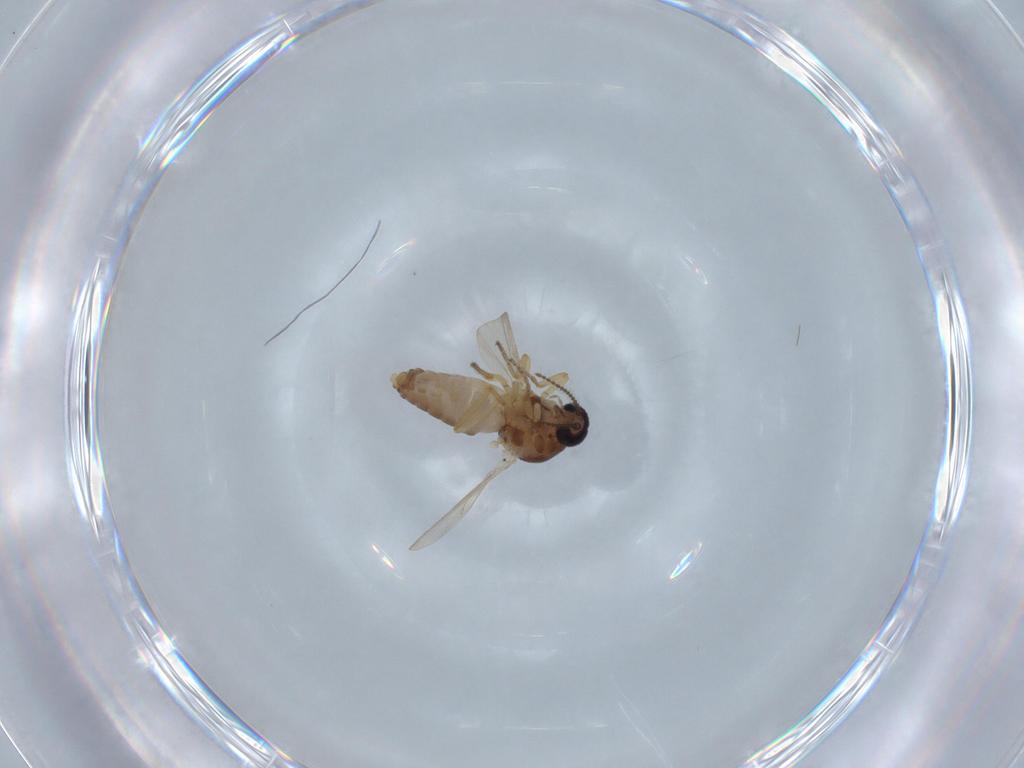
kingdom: Animalia
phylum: Arthropoda
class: Insecta
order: Diptera
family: Ceratopogonidae
